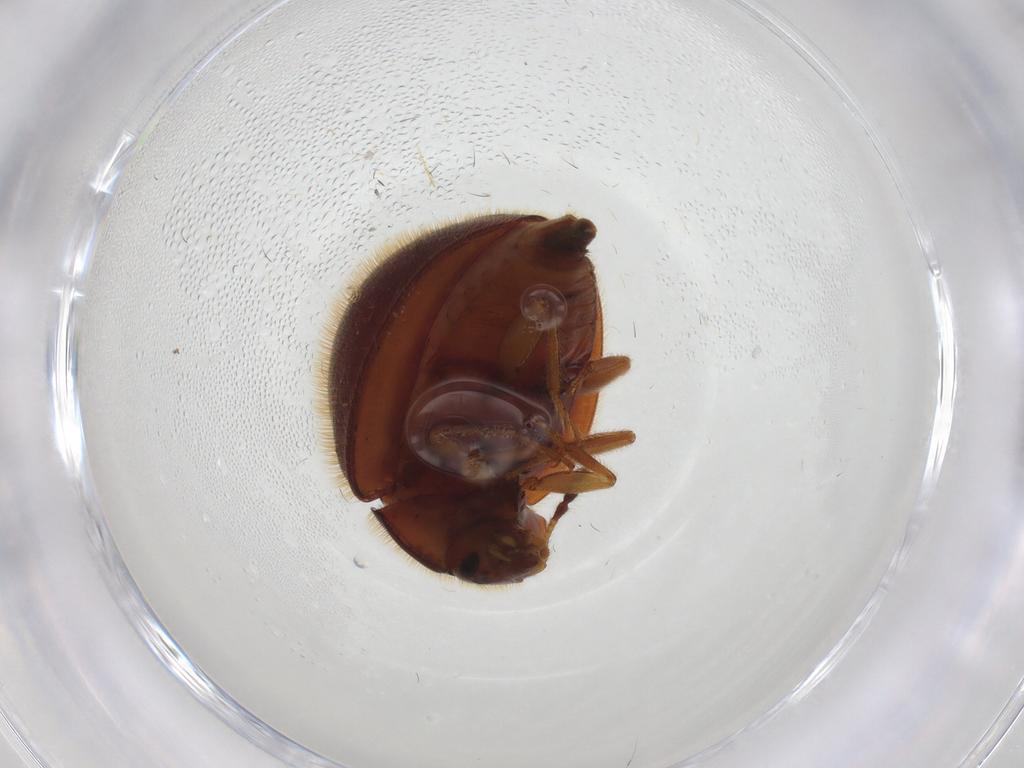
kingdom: Animalia
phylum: Arthropoda
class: Insecta
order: Coleoptera
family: Anamorphidae
